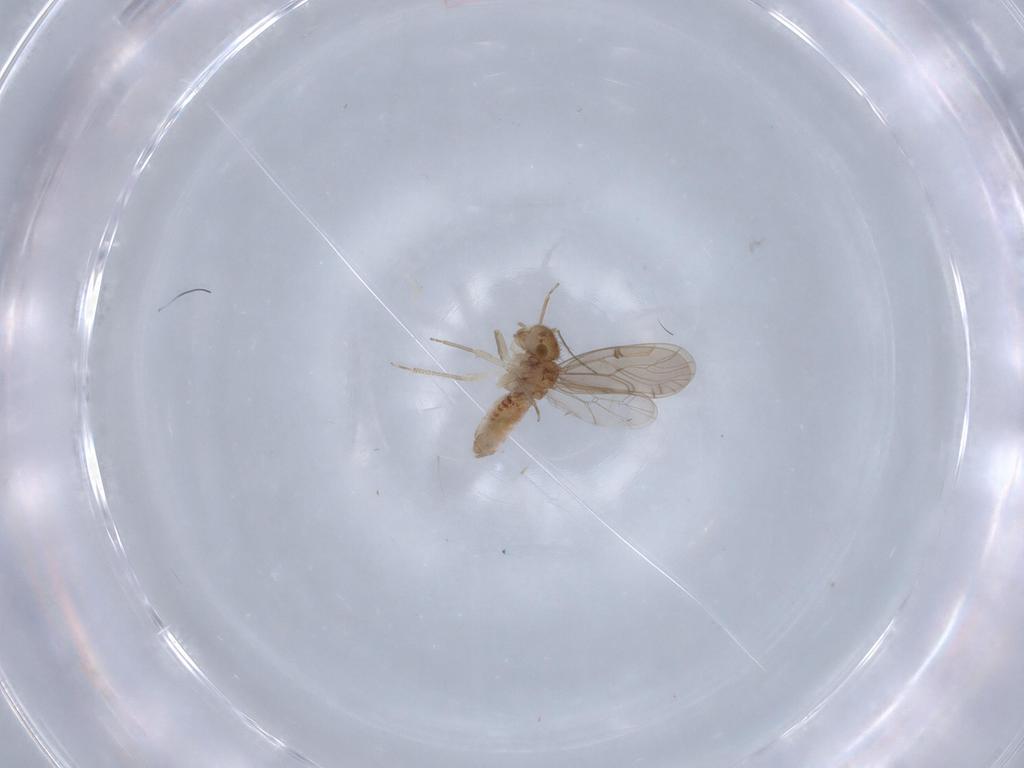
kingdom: Animalia
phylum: Arthropoda
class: Insecta
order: Psocodea
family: Ectopsocidae
